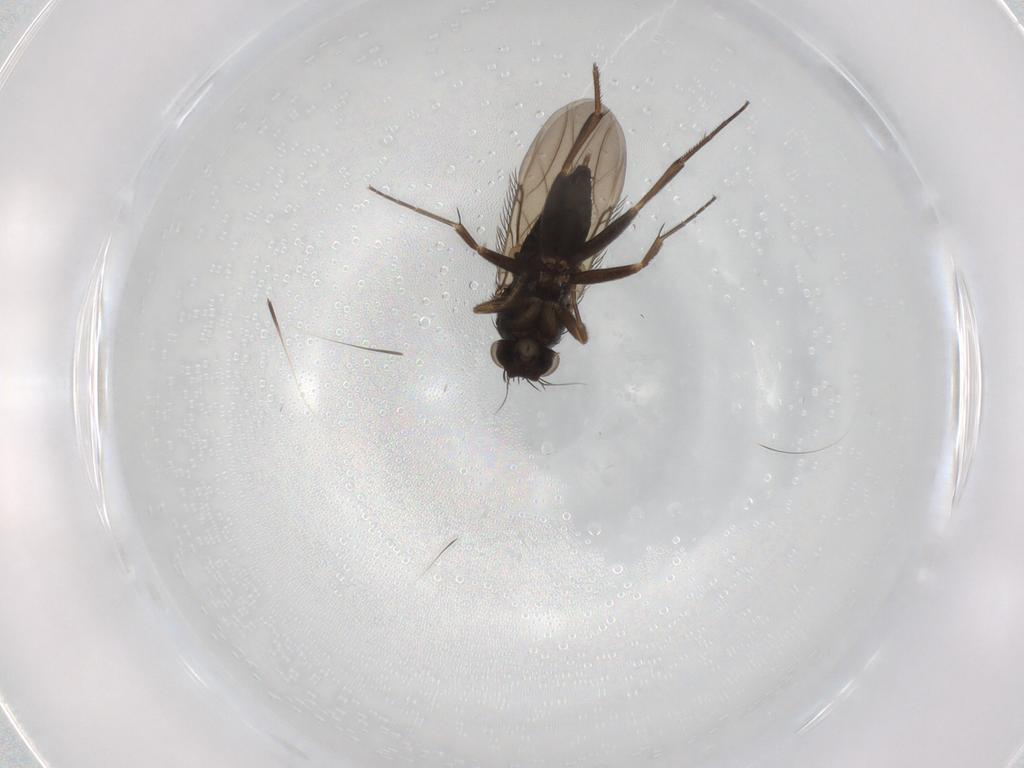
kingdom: Animalia
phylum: Arthropoda
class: Insecta
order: Diptera
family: Phoridae
